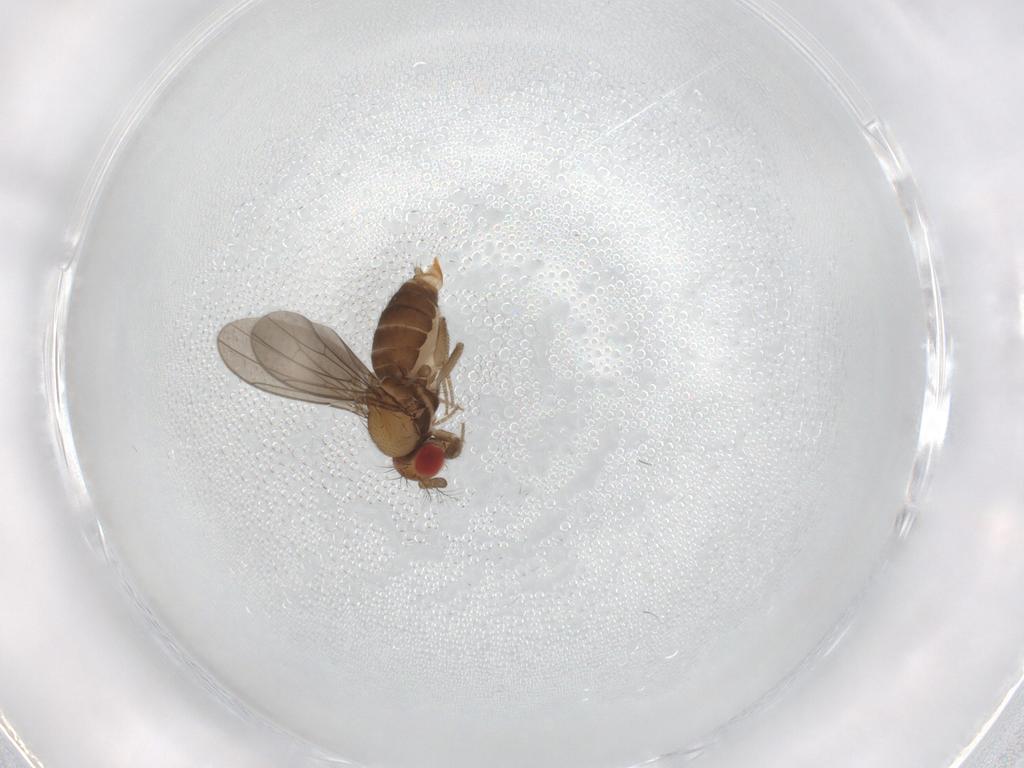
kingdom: Animalia
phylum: Arthropoda
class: Insecta
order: Diptera
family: Drosophilidae
